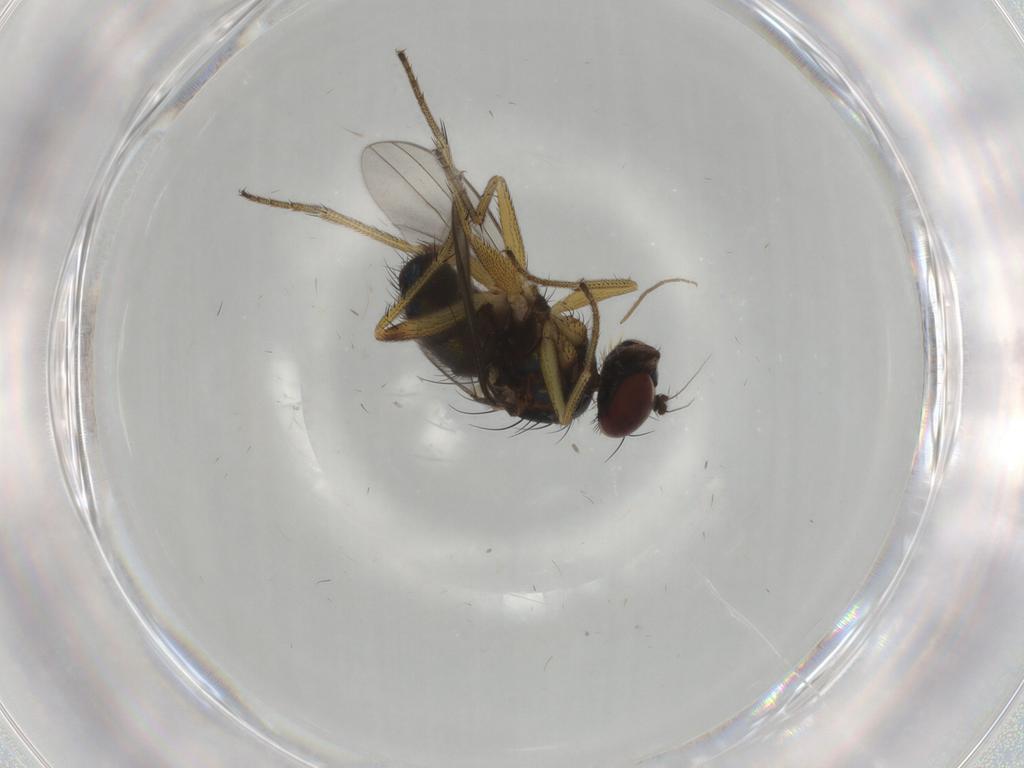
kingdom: Animalia
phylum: Arthropoda
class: Insecta
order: Diptera
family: Dolichopodidae
